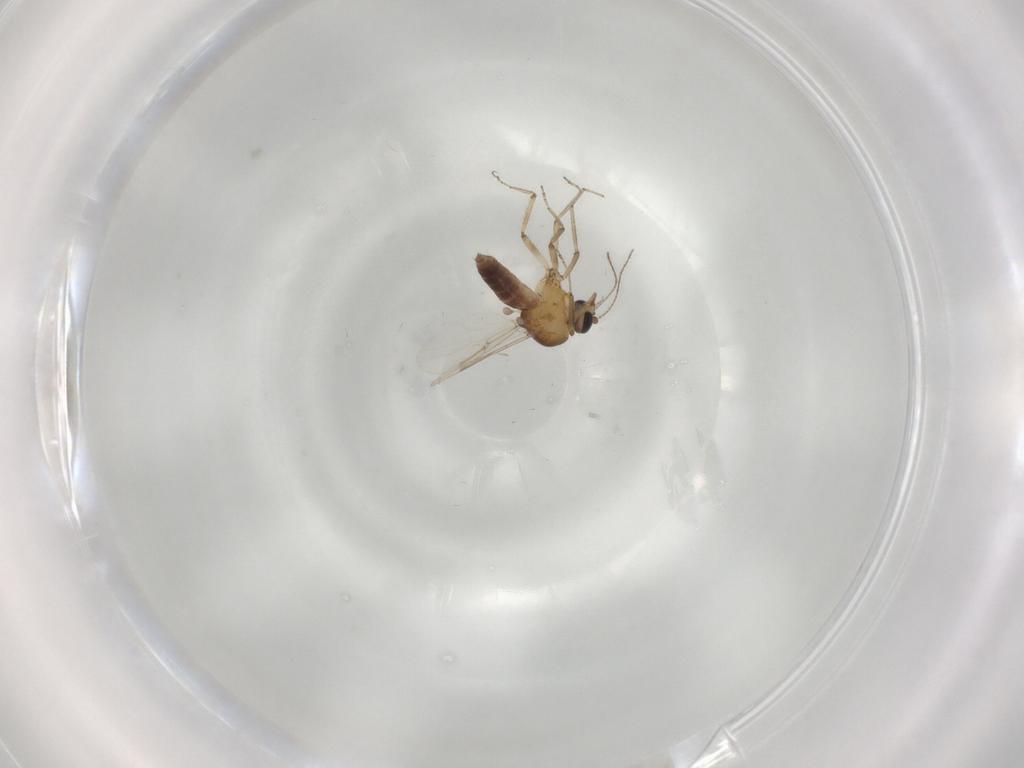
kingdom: Animalia
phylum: Arthropoda
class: Insecta
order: Diptera
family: Ceratopogonidae
